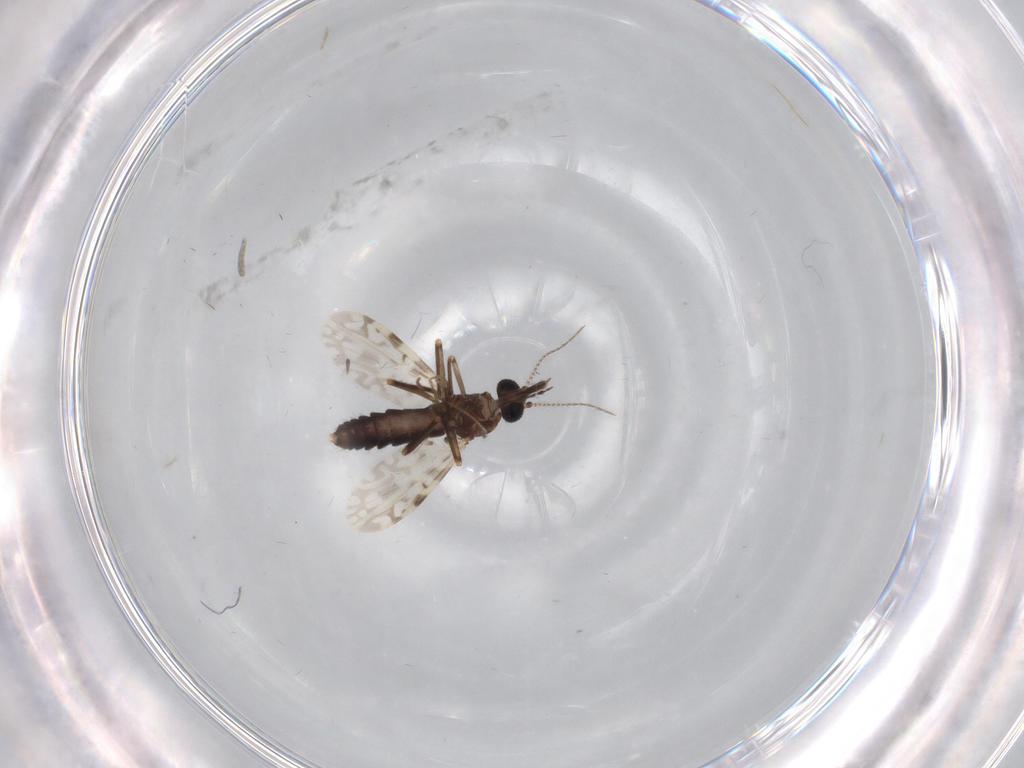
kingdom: Animalia
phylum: Arthropoda
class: Insecta
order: Diptera
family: Ceratopogonidae
